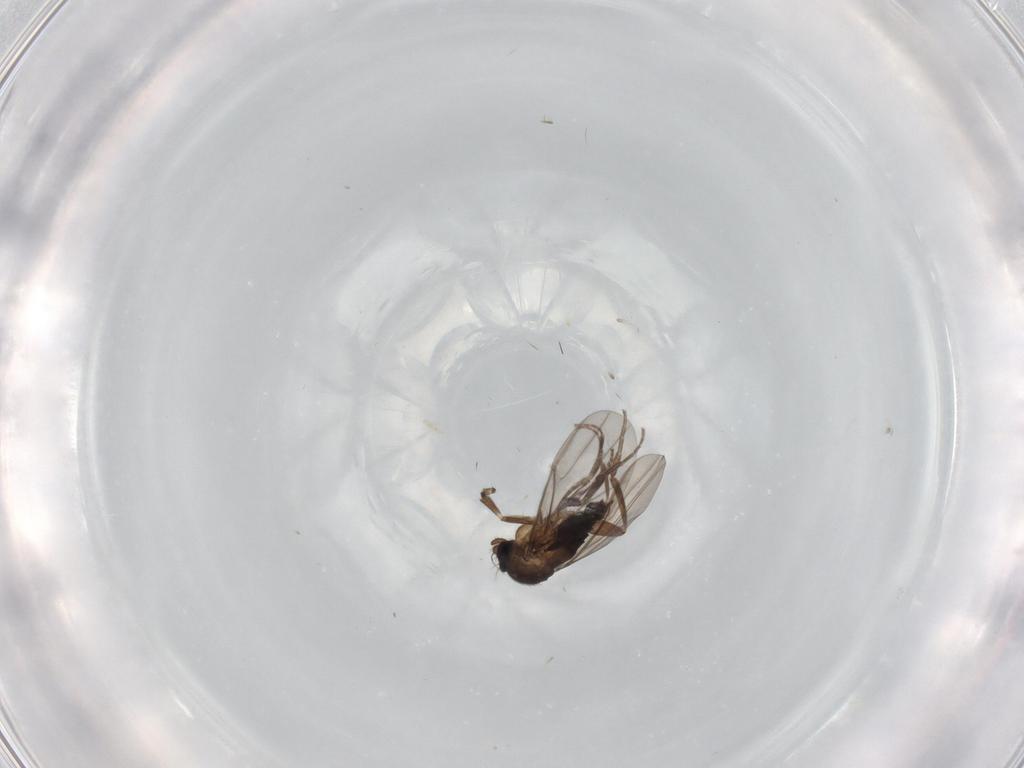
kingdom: Animalia
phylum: Arthropoda
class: Insecta
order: Diptera
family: Phoridae
